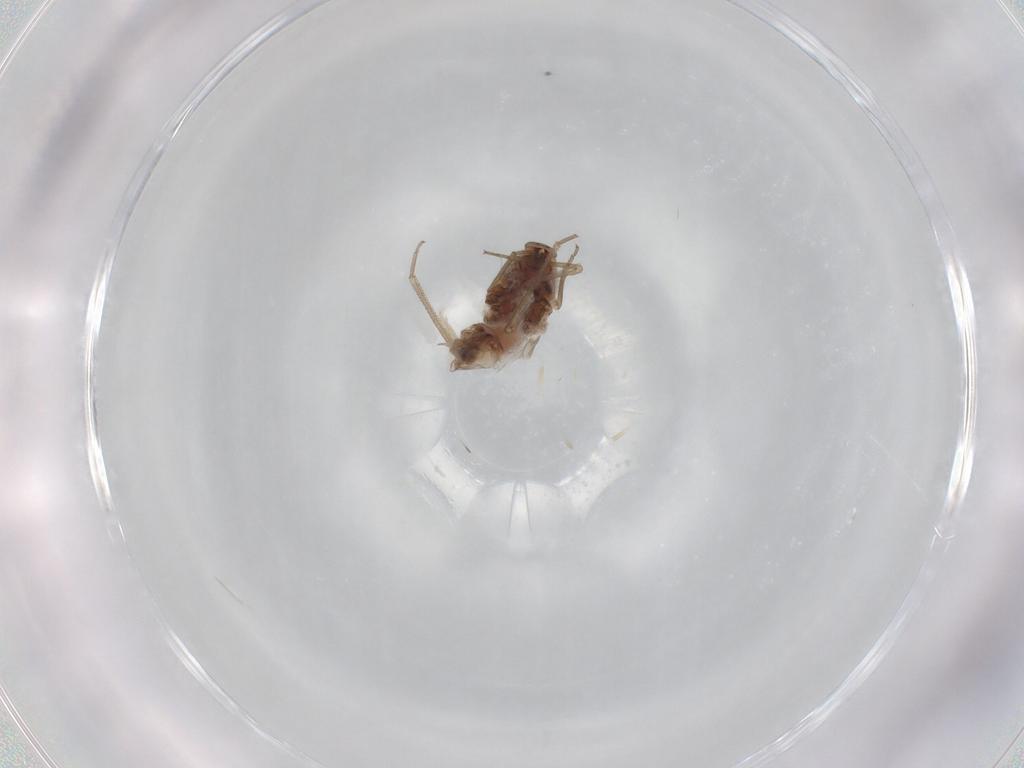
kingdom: Animalia
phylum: Arthropoda
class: Insecta
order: Psocodea
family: Peripsocidae
